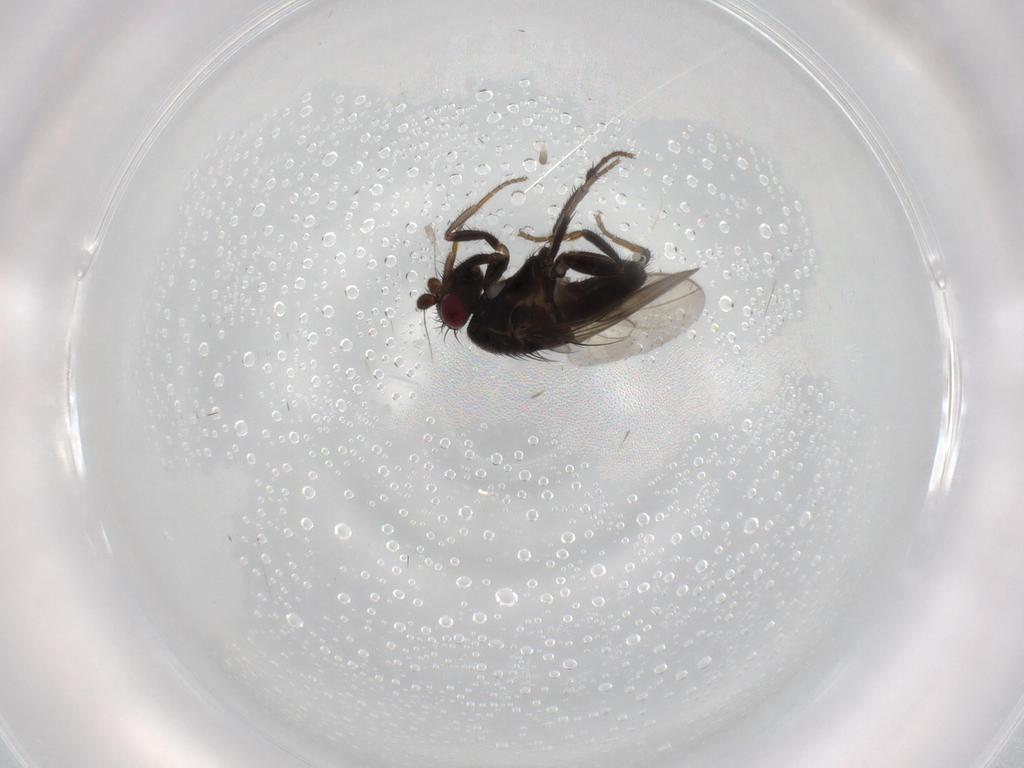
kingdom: Animalia
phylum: Arthropoda
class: Insecta
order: Diptera
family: Sphaeroceridae
